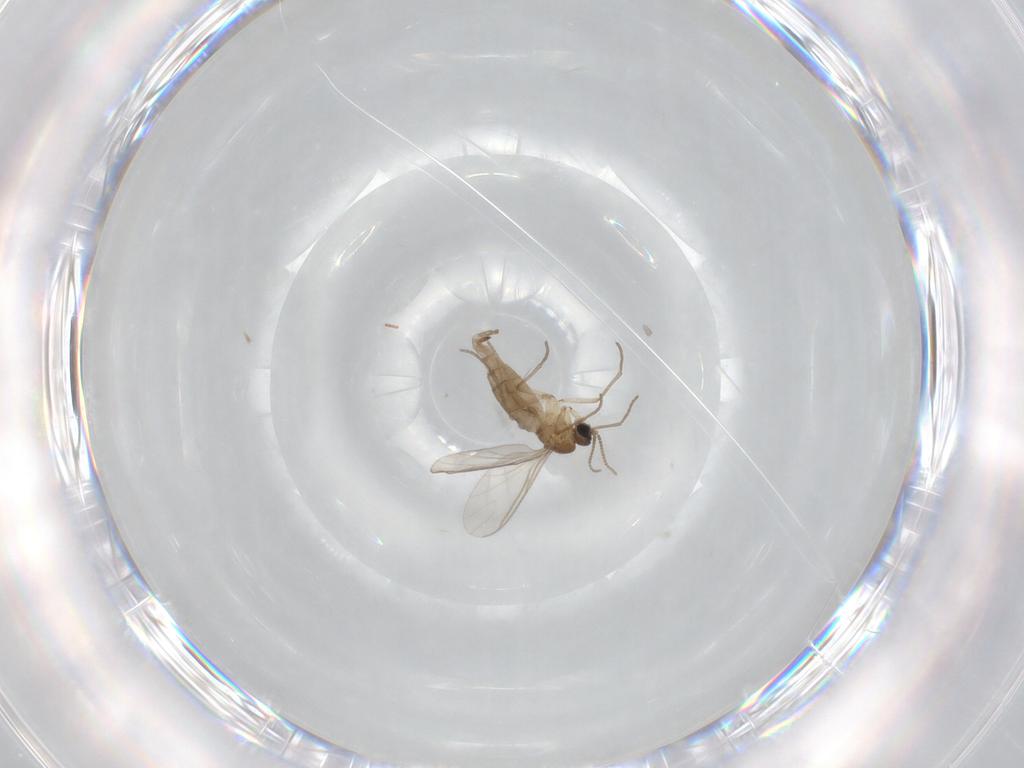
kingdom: Animalia
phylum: Arthropoda
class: Insecta
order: Diptera
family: Sciaridae
